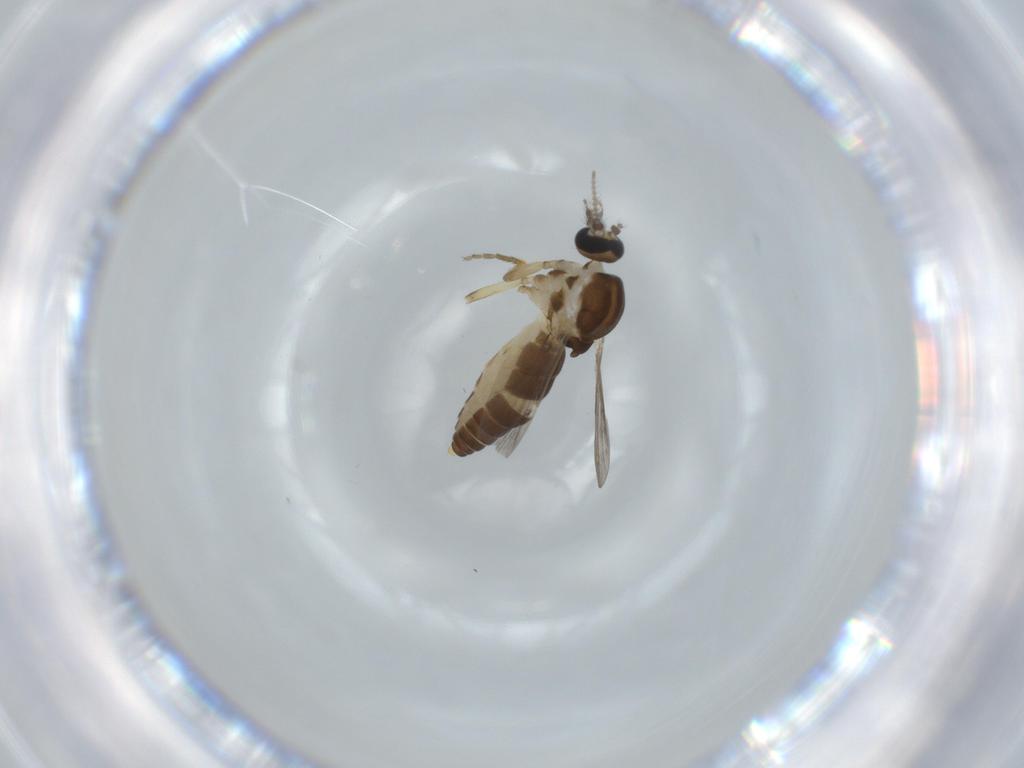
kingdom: Animalia
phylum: Arthropoda
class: Insecta
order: Diptera
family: Ceratopogonidae
